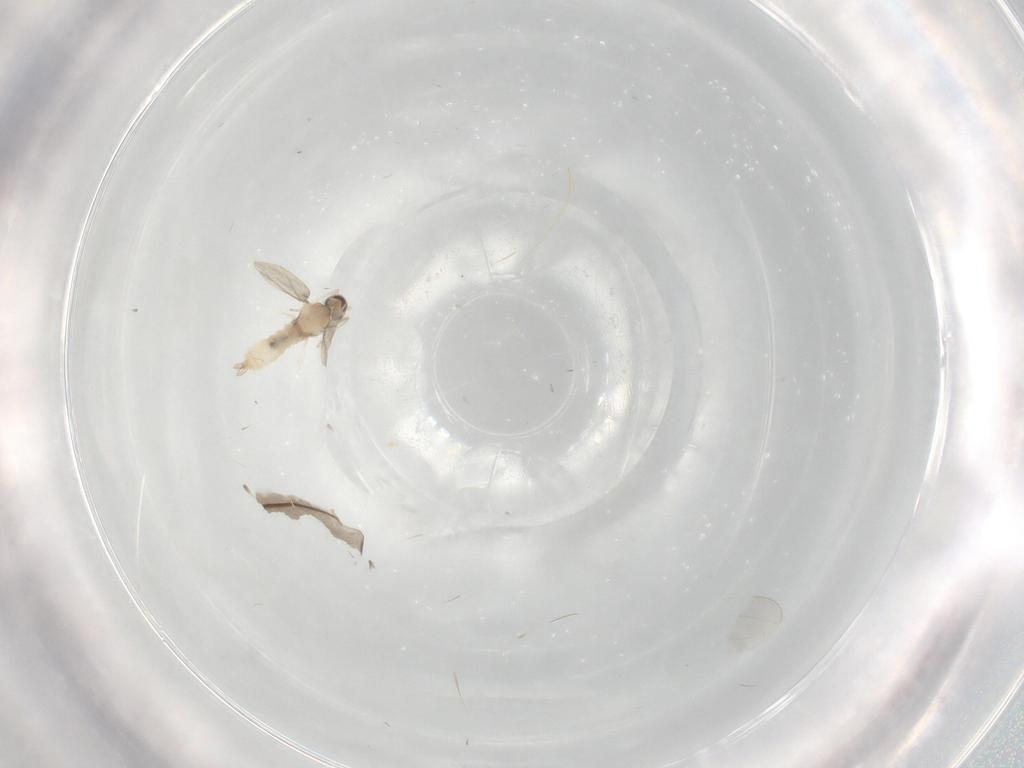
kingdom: Animalia
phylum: Arthropoda
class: Insecta
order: Diptera
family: Cecidomyiidae
